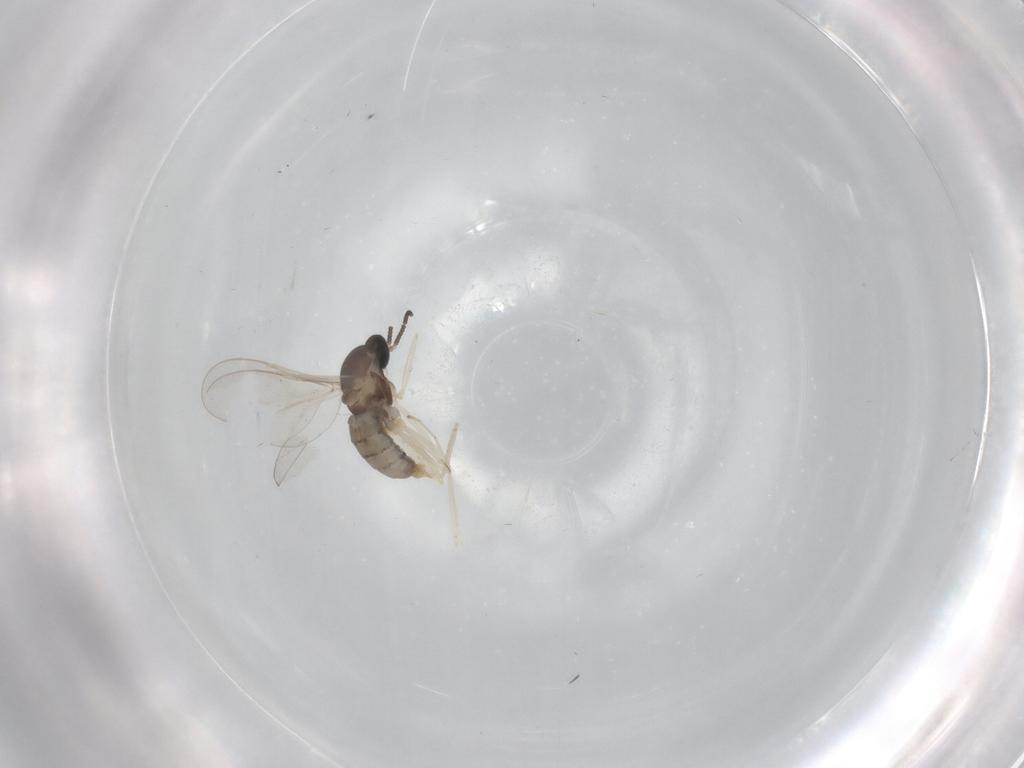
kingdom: Animalia
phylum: Arthropoda
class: Insecta
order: Diptera
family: Cecidomyiidae
